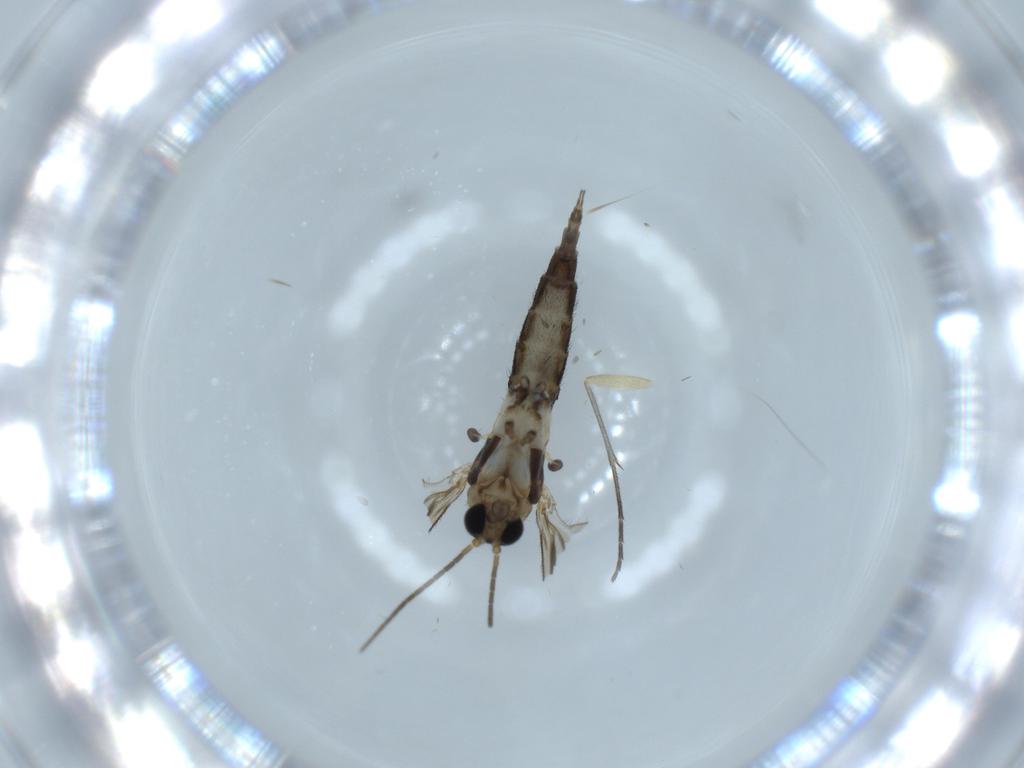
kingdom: Animalia
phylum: Arthropoda
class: Insecta
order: Diptera
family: Sciaridae
